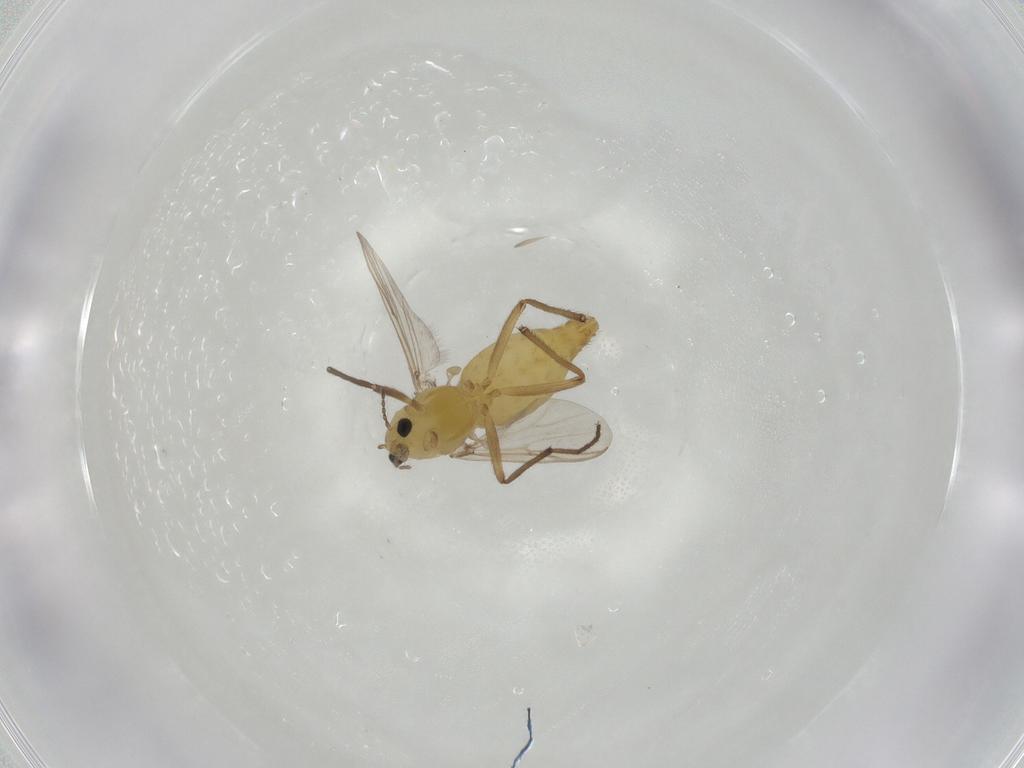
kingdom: Animalia
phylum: Arthropoda
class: Insecta
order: Diptera
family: Chironomidae
